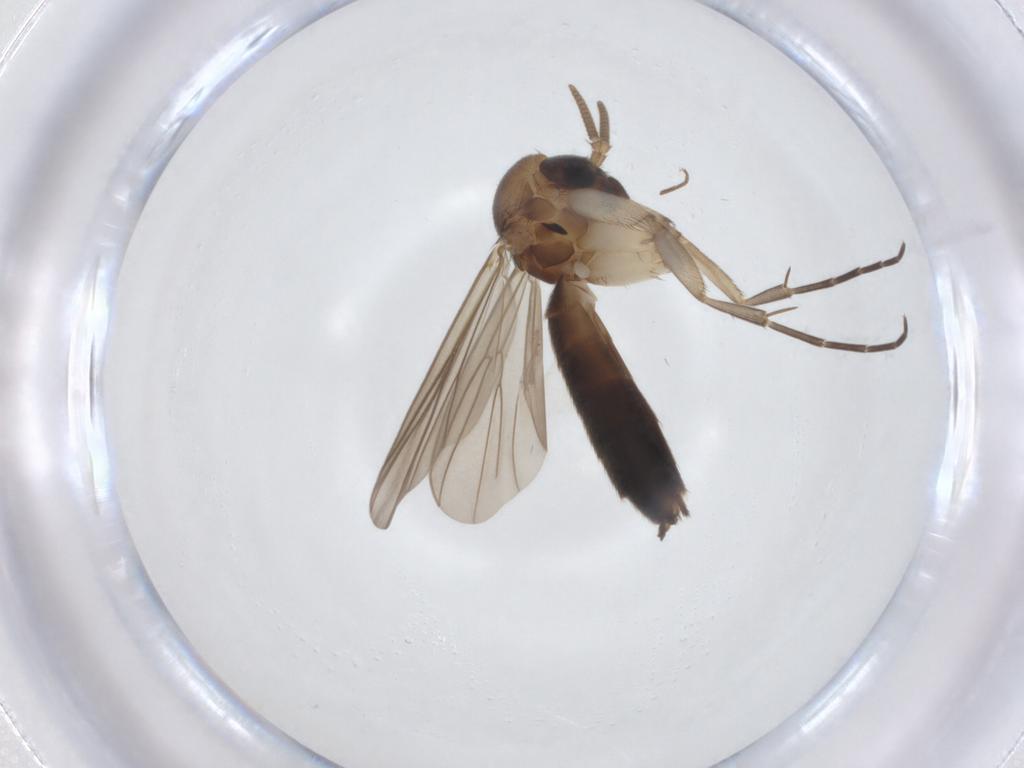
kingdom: Animalia
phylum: Arthropoda
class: Insecta
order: Diptera
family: Mycetophilidae
